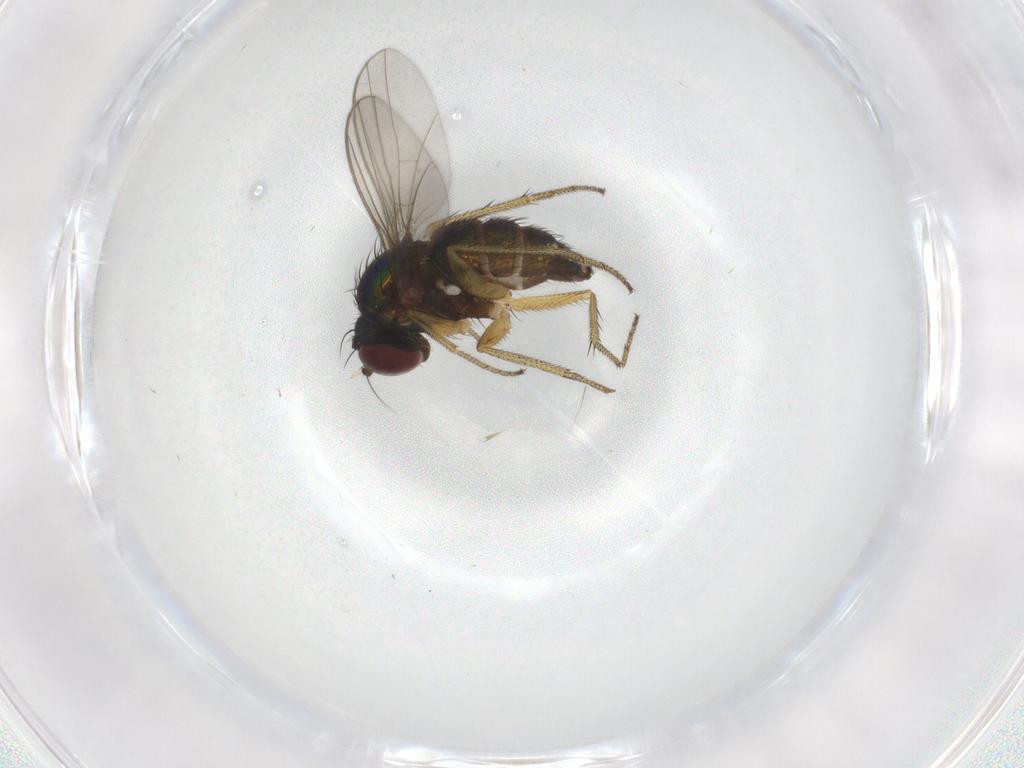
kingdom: Animalia
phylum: Arthropoda
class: Insecta
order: Diptera
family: Dolichopodidae
